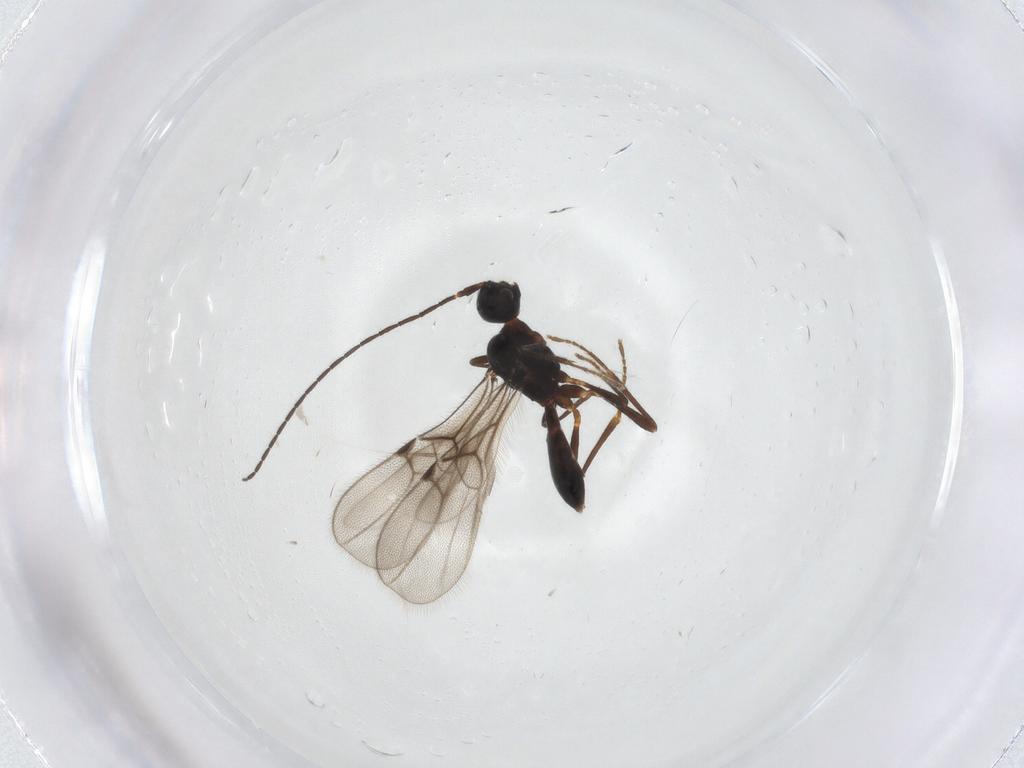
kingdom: Animalia
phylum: Arthropoda
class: Insecta
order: Hymenoptera
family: Braconidae
